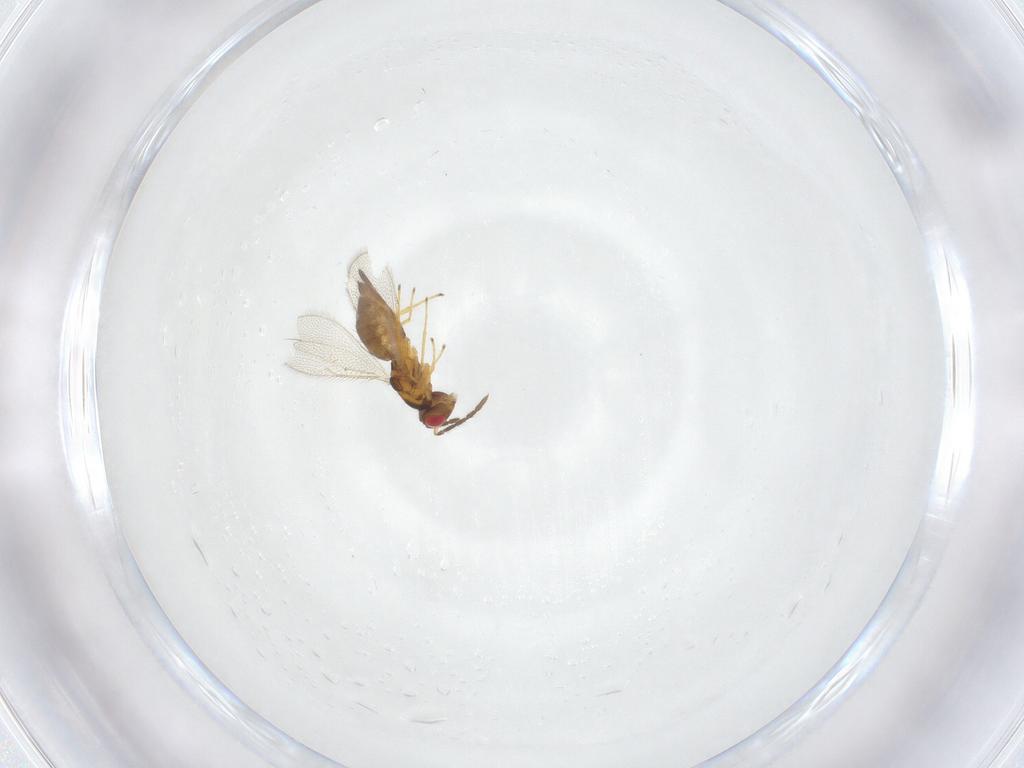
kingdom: Animalia
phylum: Arthropoda
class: Insecta
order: Hymenoptera
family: Eulophidae
